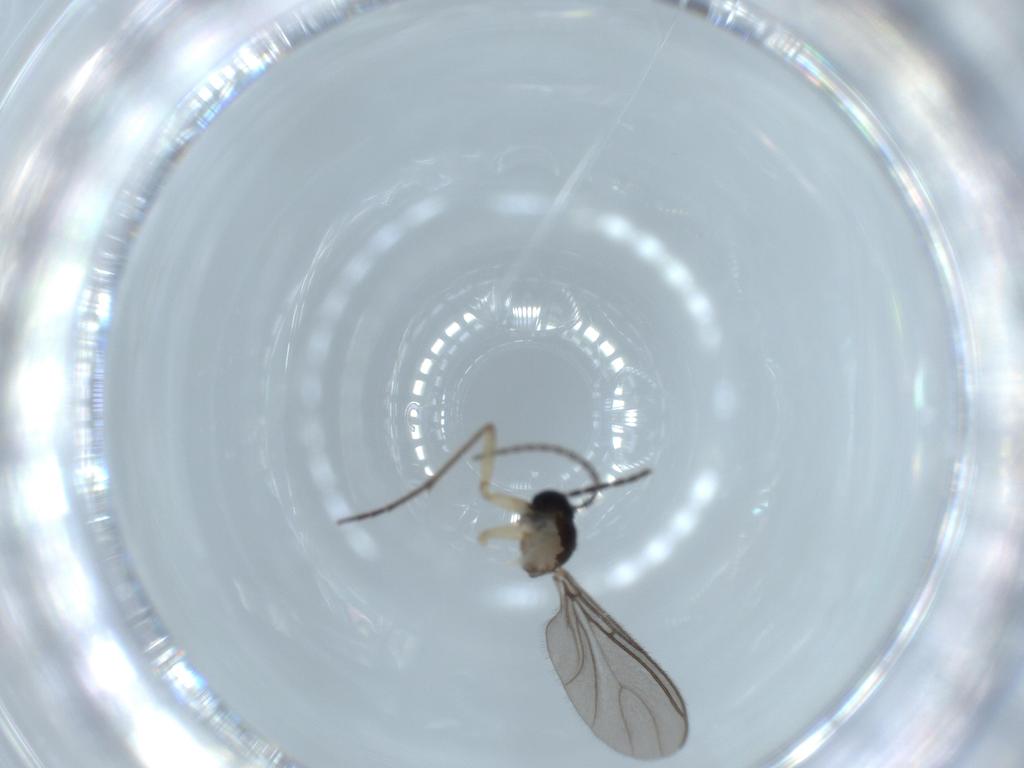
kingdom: Animalia
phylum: Arthropoda
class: Insecta
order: Diptera
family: Sciaridae
